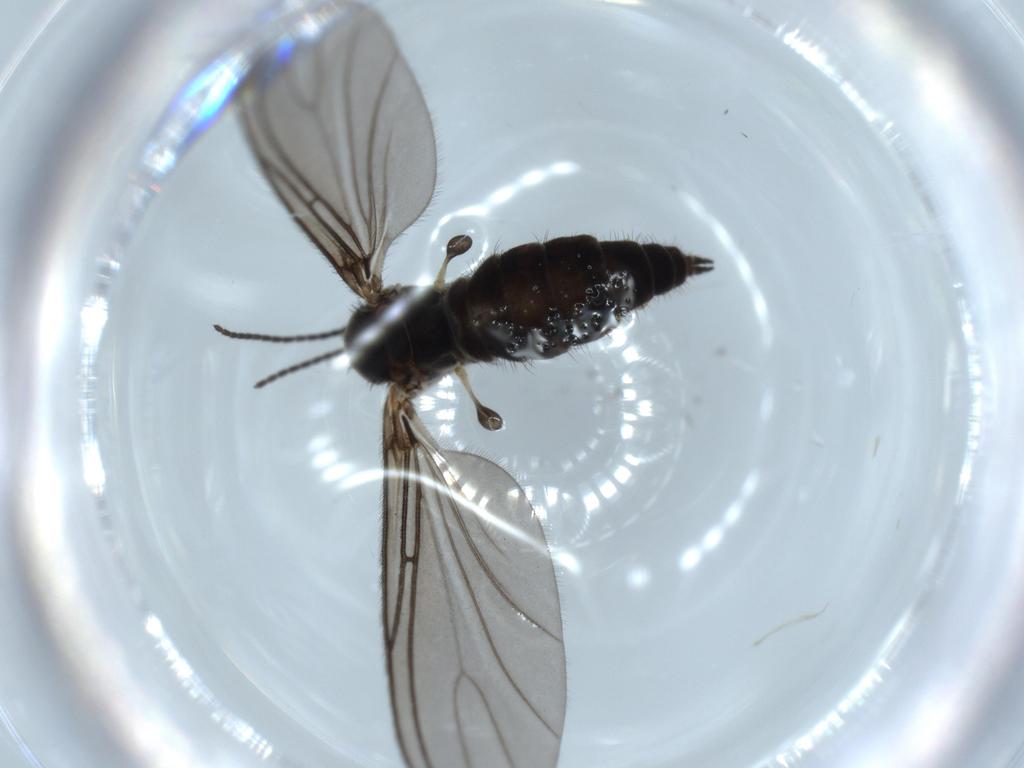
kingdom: Animalia
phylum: Arthropoda
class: Insecta
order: Diptera
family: Sciaridae
